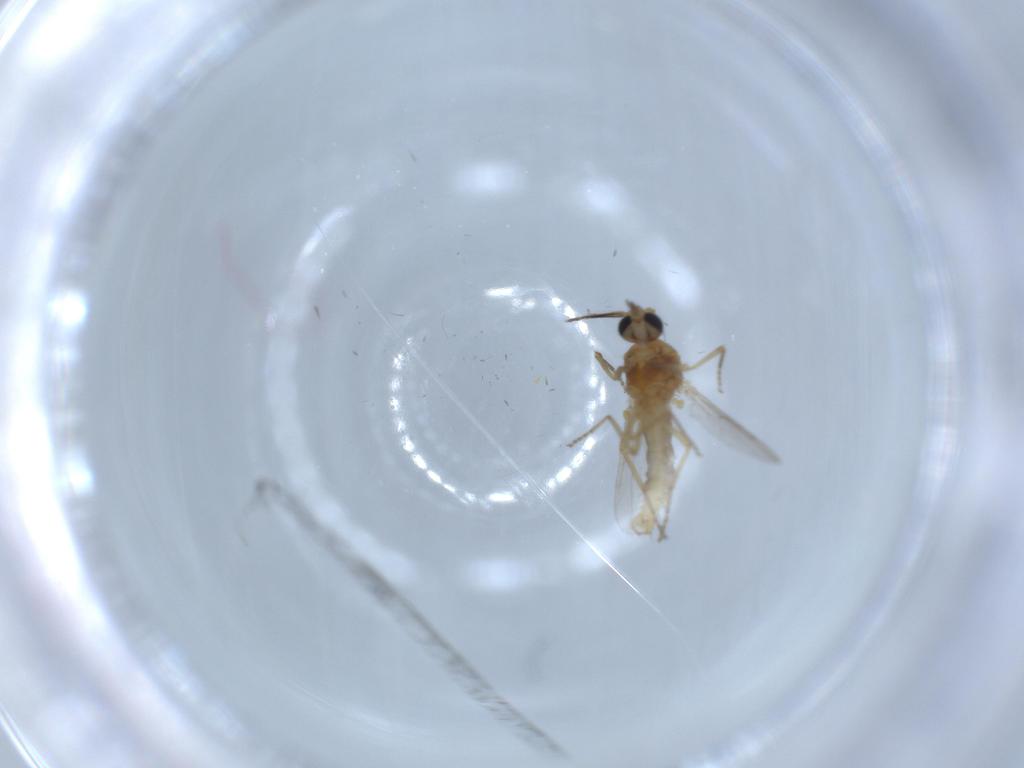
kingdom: Animalia
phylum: Arthropoda
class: Insecta
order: Diptera
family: Ceratopogonidae
